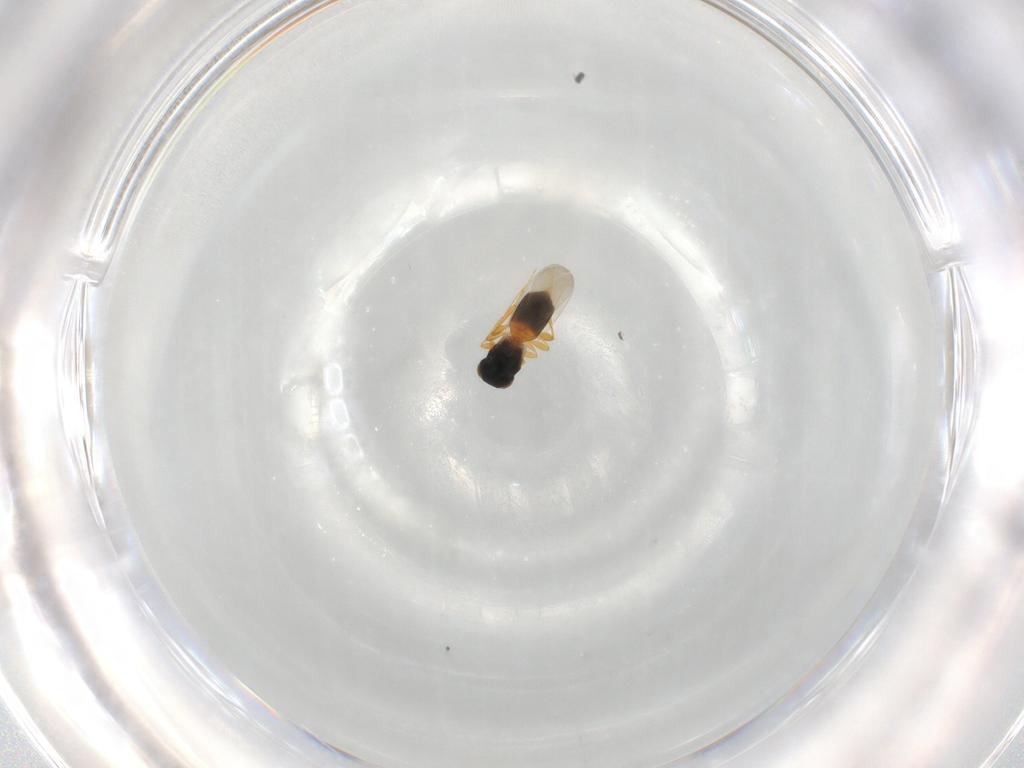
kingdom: Animalia
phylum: Arthropoda
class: Insecta
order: Hymenoptera
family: Platygastridae
